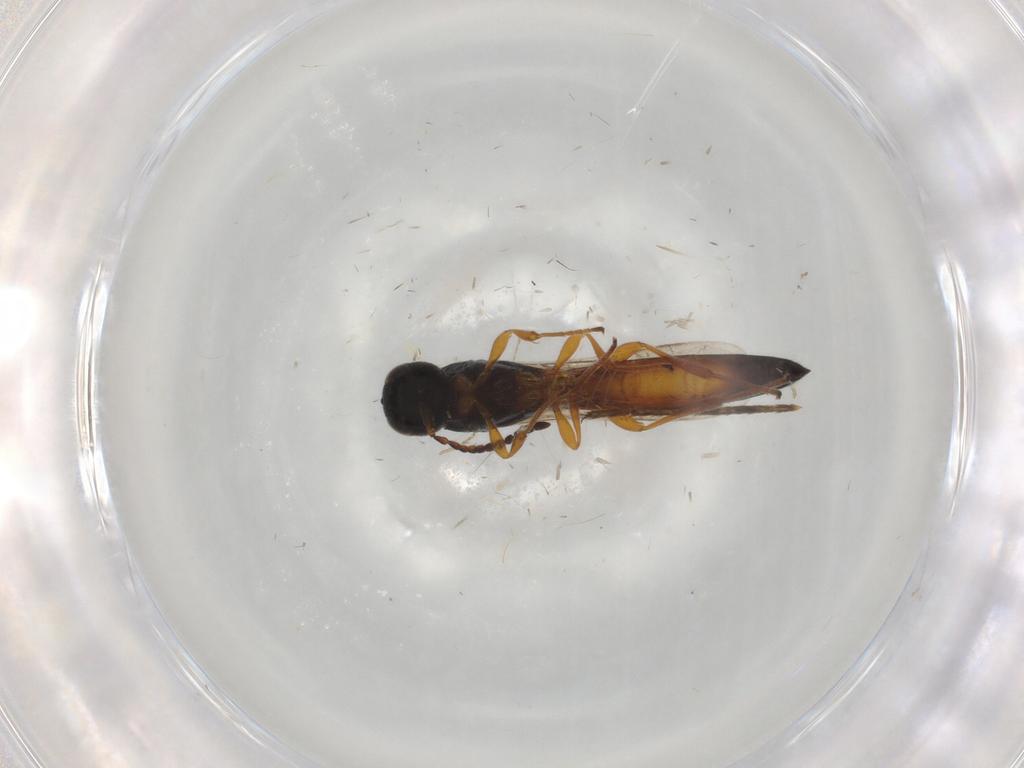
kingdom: Animalia
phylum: Arthropoda
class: Insecta
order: Hymenoptera
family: Scelionidae
